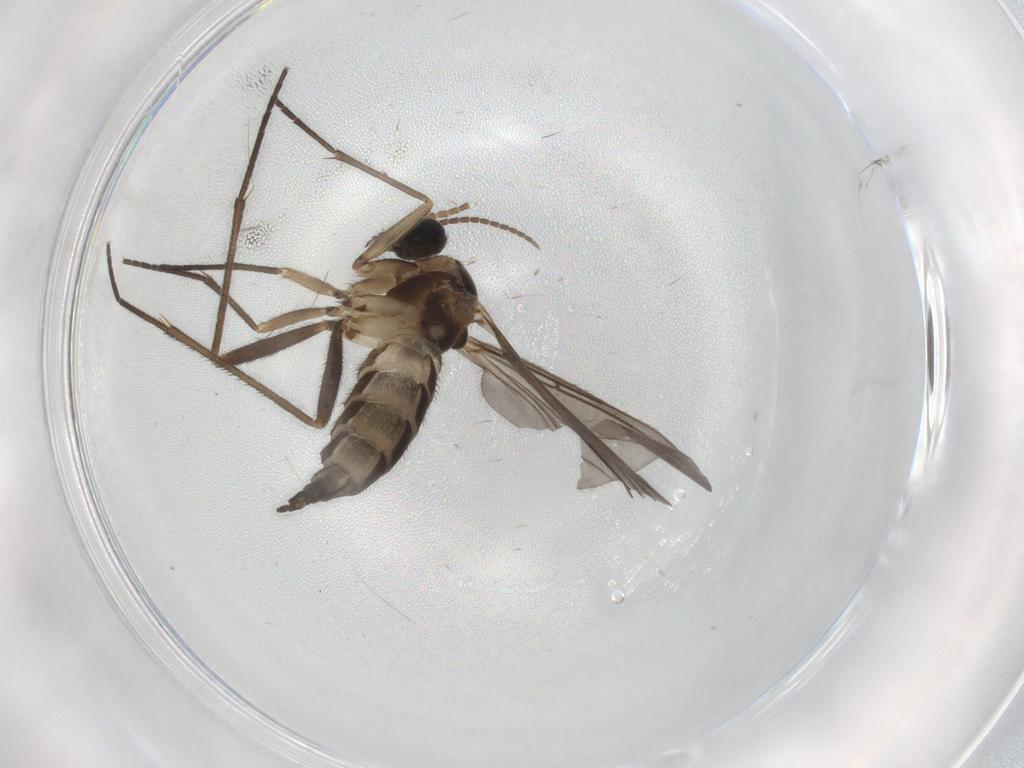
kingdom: Animalia
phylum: Arthropoda
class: Insecta
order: Diptera
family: Sciaridae
